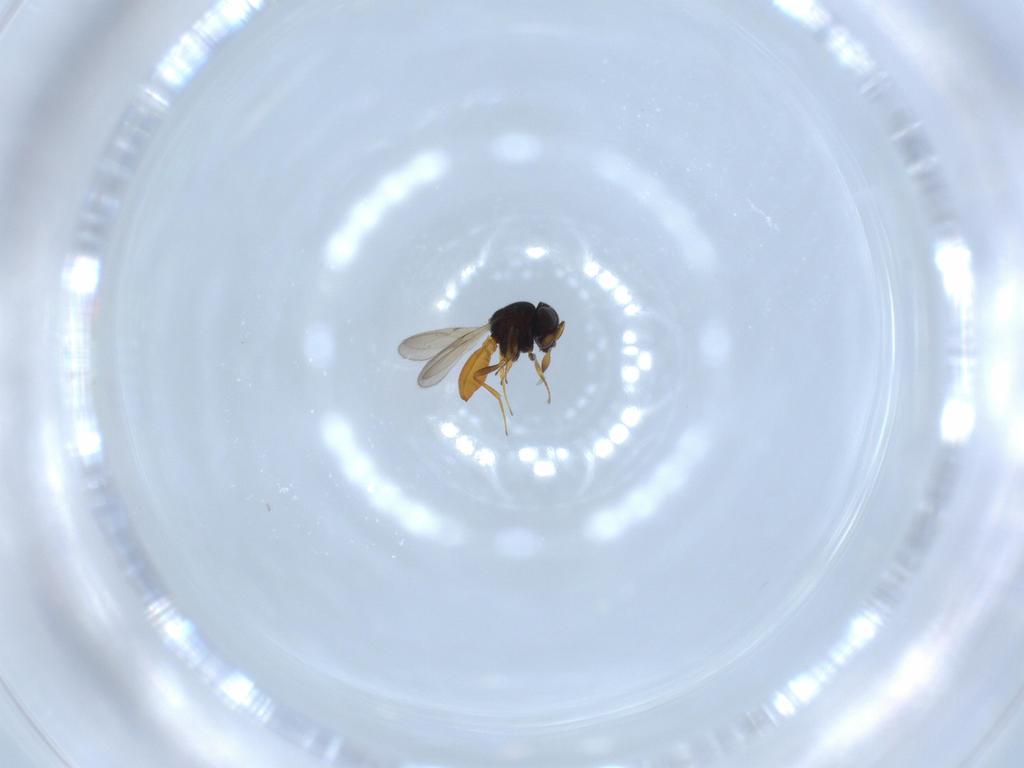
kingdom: Animalia
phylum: Arthropoda
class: Insecta
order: Hymenoptera
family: Scelionidae
